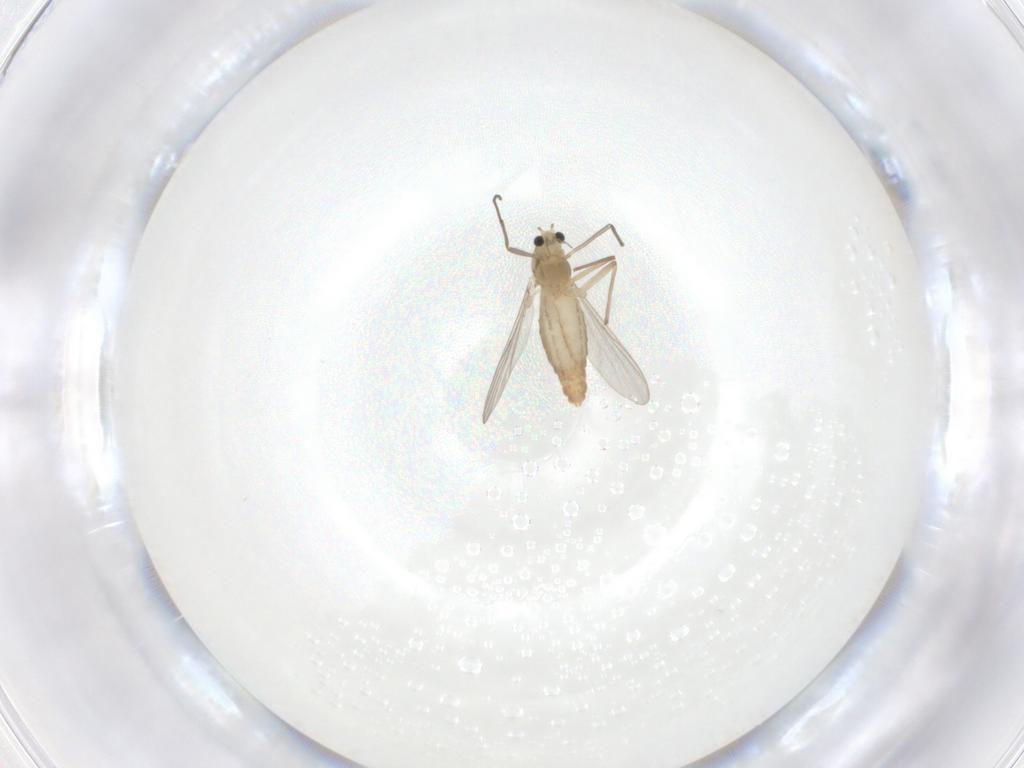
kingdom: Animalia
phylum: Arthropoda
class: Insecta
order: Diptera
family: Chironomidae
